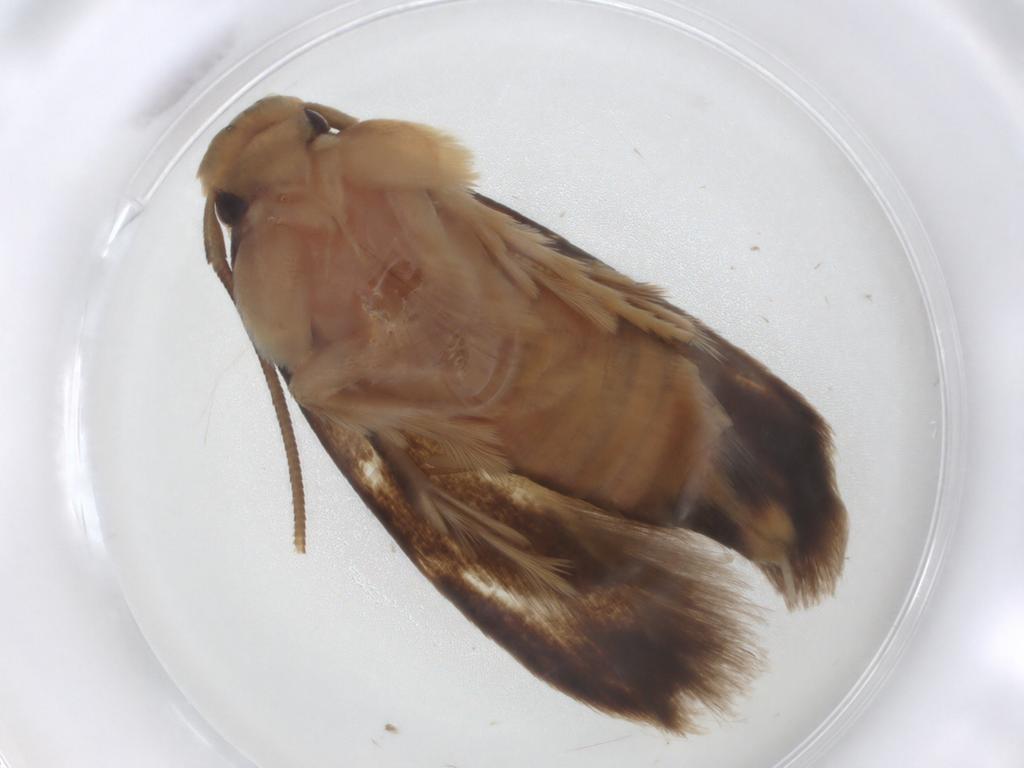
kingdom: Animalia
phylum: Arthropoda
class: Insecta
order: Lepidoptera
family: Tineidae
